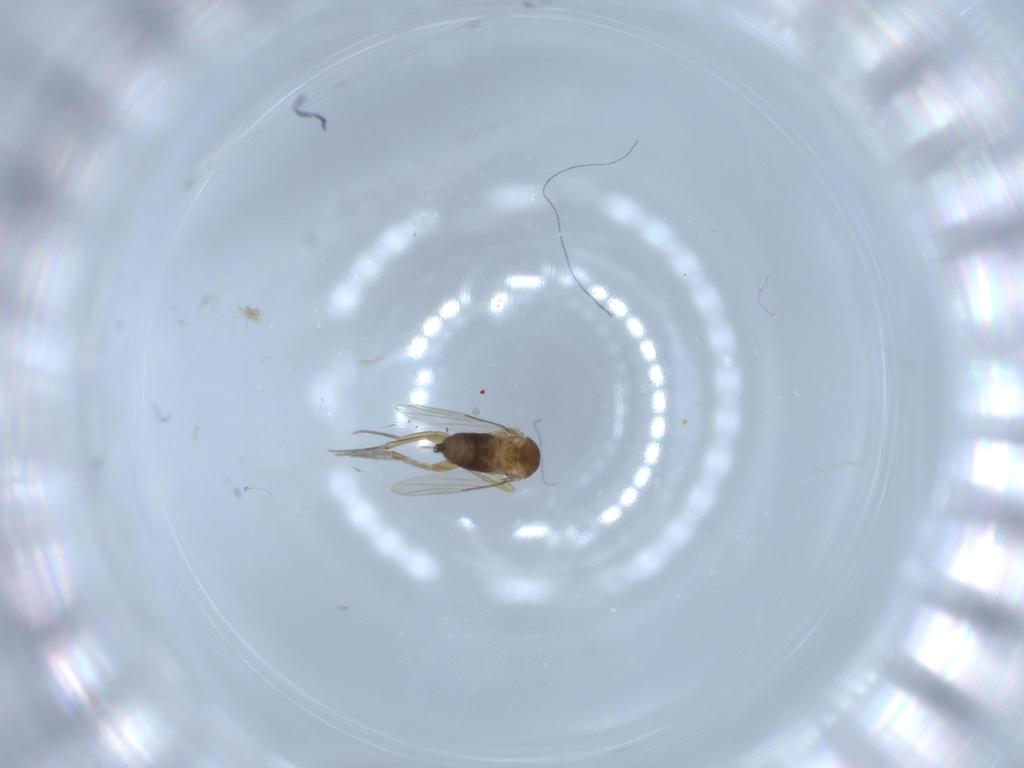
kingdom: Animalia
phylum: Arthropoda
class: Insecta
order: Diptera
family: Phoridae
